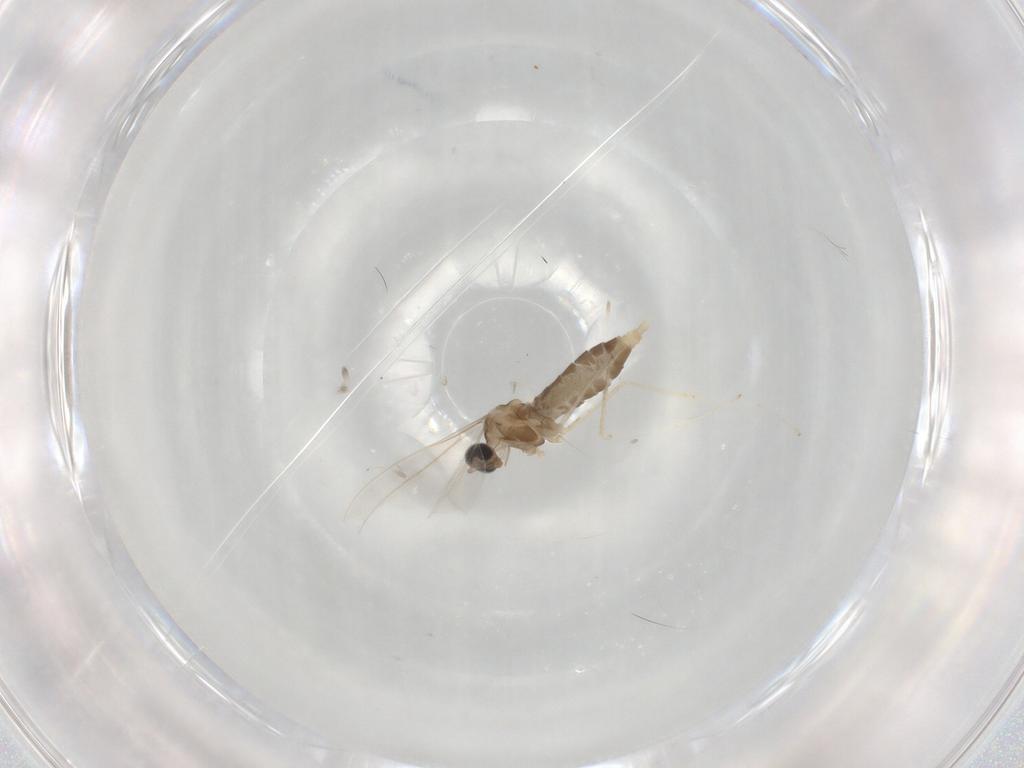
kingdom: Animalia
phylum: Arthropoda
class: Insecta
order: Diptera
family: Cecidomyiidae
